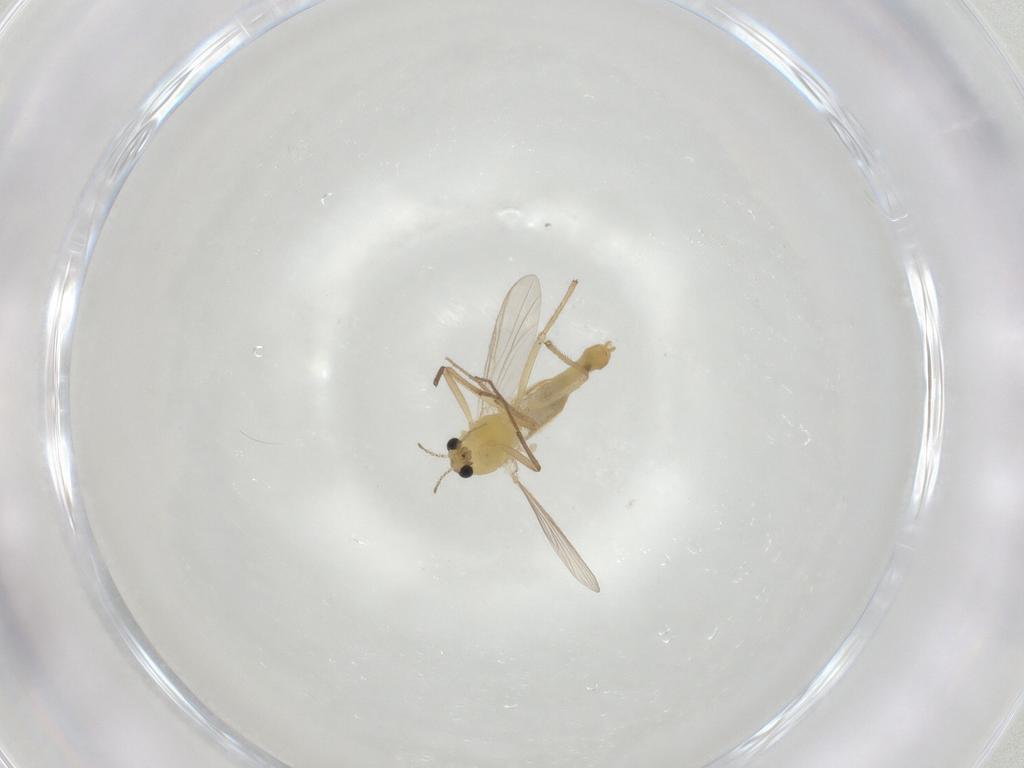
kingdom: Animalia
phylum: Arthropoda
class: Insecta
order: Diptera
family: Chironomidae
